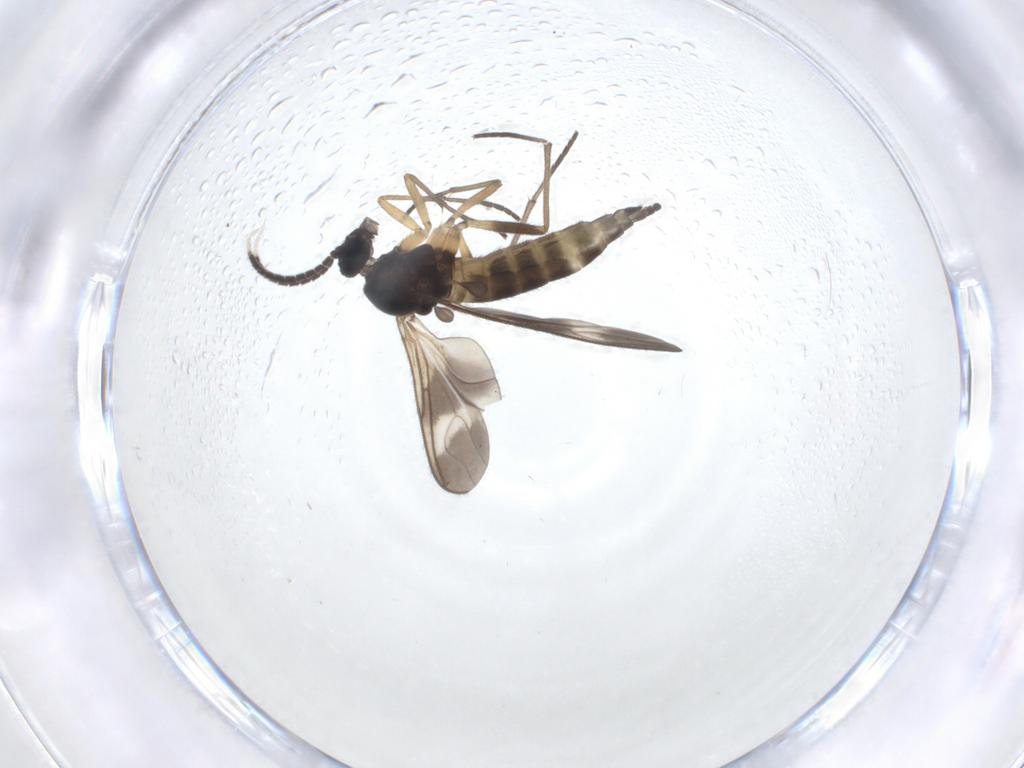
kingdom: Animalia
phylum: Arthropoda
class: Insecta
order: Diptera
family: Sciaridae
